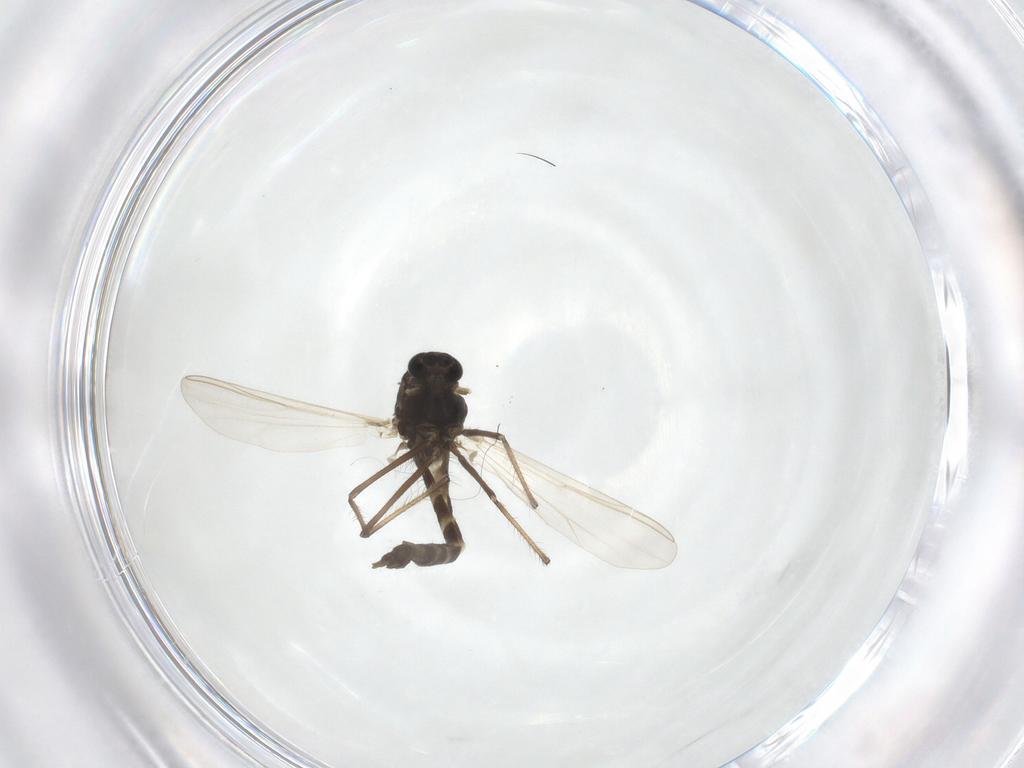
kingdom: Animalia
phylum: Arthropoda
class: Insecta
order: Diptera
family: Chironomidae
